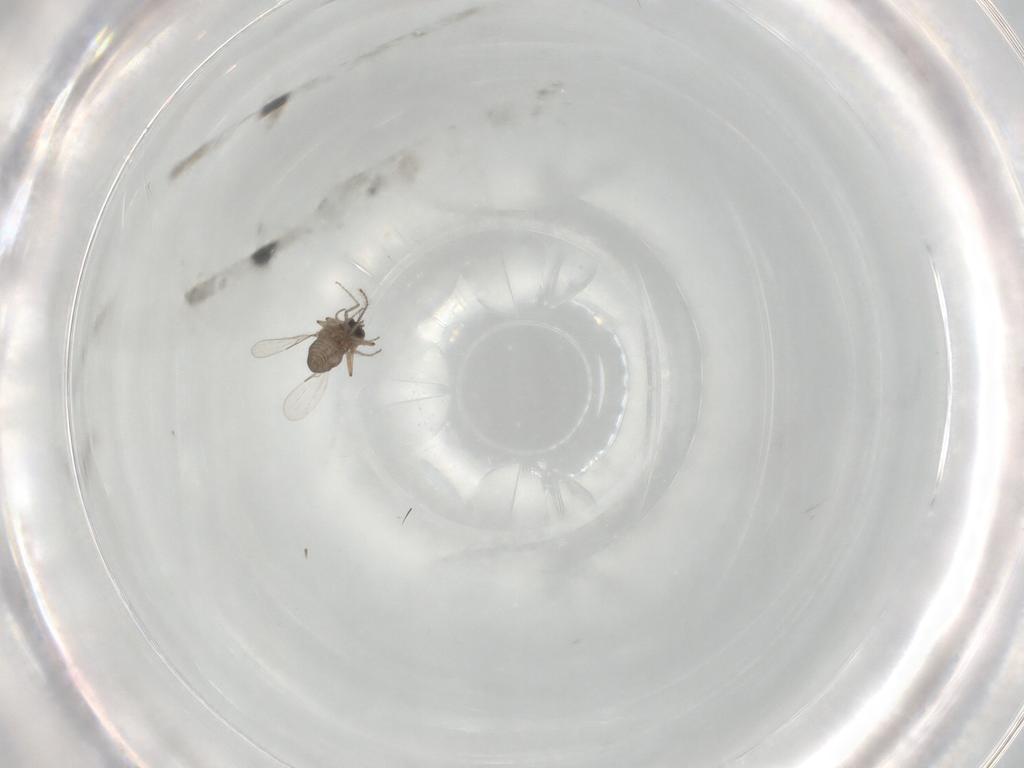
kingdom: Animalia
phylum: Arthropoda
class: Insecta
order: Diptera
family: Ceratopogonidae
